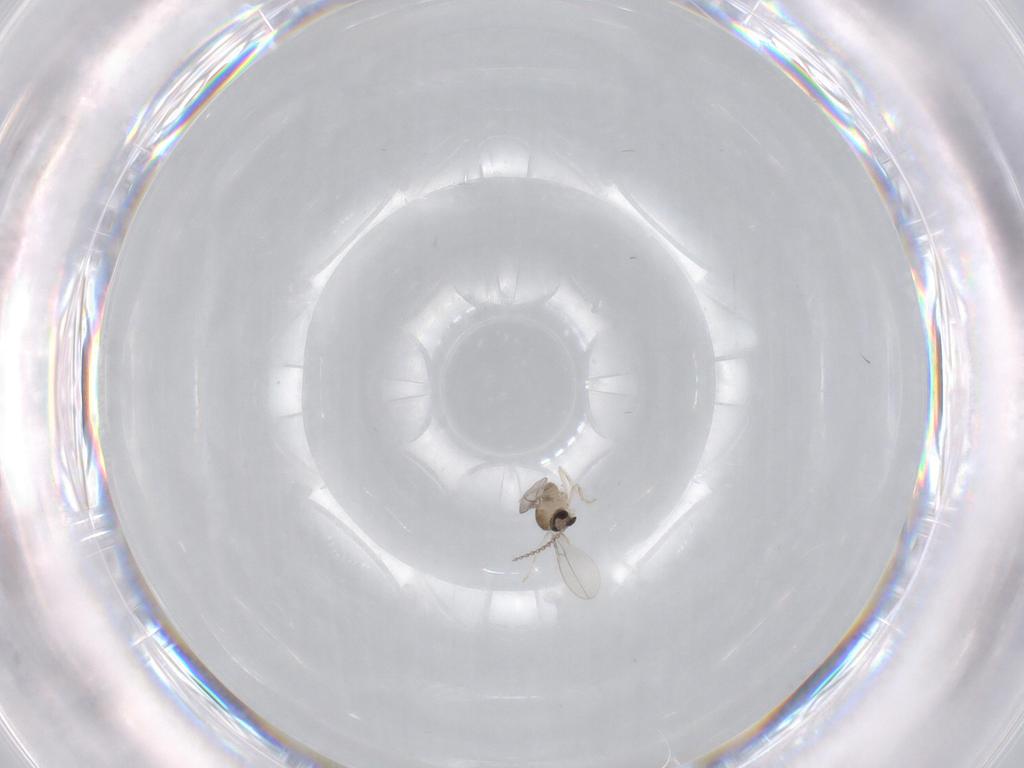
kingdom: Animalia
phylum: Arthropoda
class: Insecta
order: Diptera
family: Cecidomyiidae
